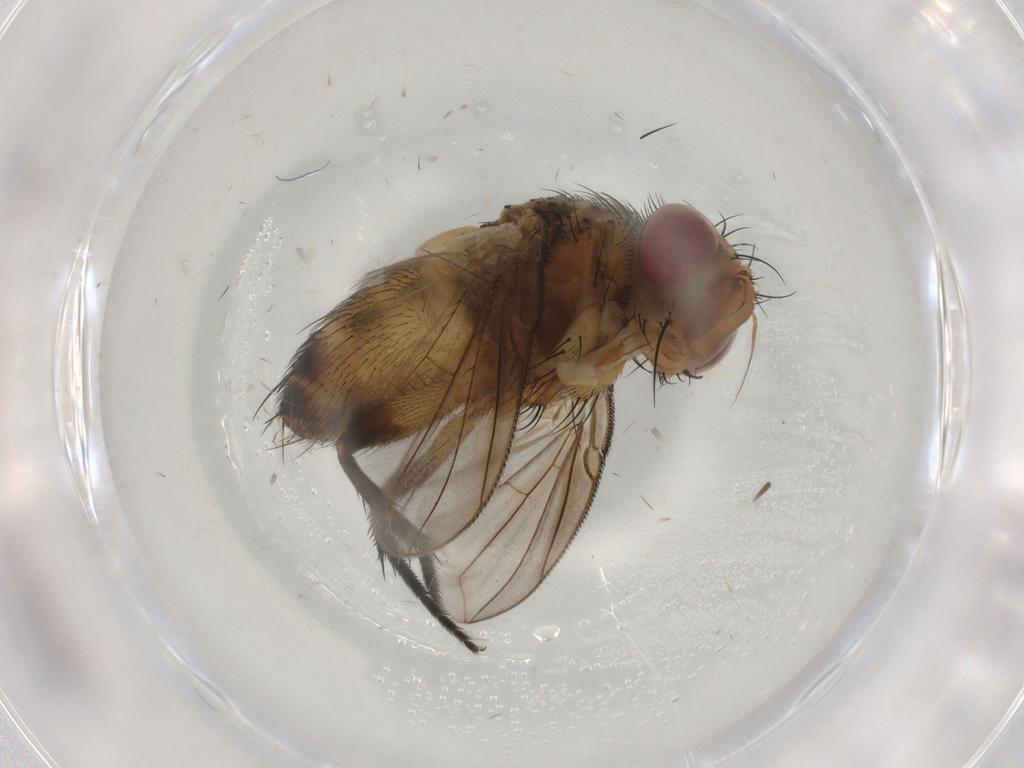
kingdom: Animalia
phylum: Arthropoda
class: Insecta
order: Diptera
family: Tachinidae
